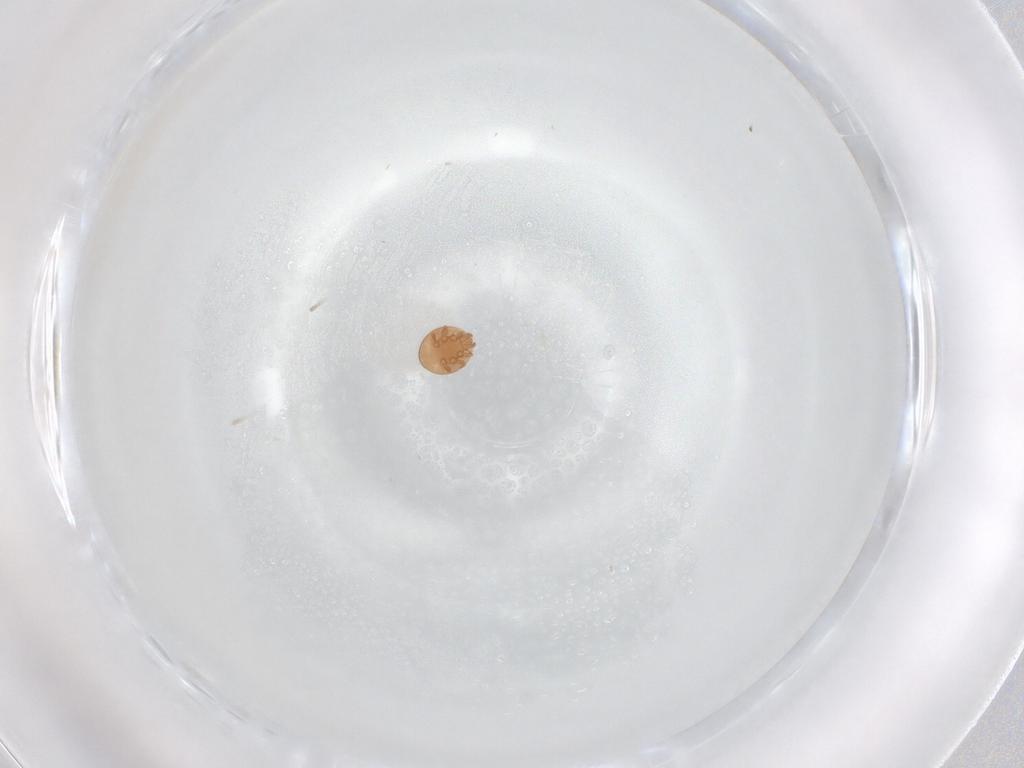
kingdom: Animalia
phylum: Arthropoda
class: Arachnida
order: Mesostigmata
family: Trematuridae
